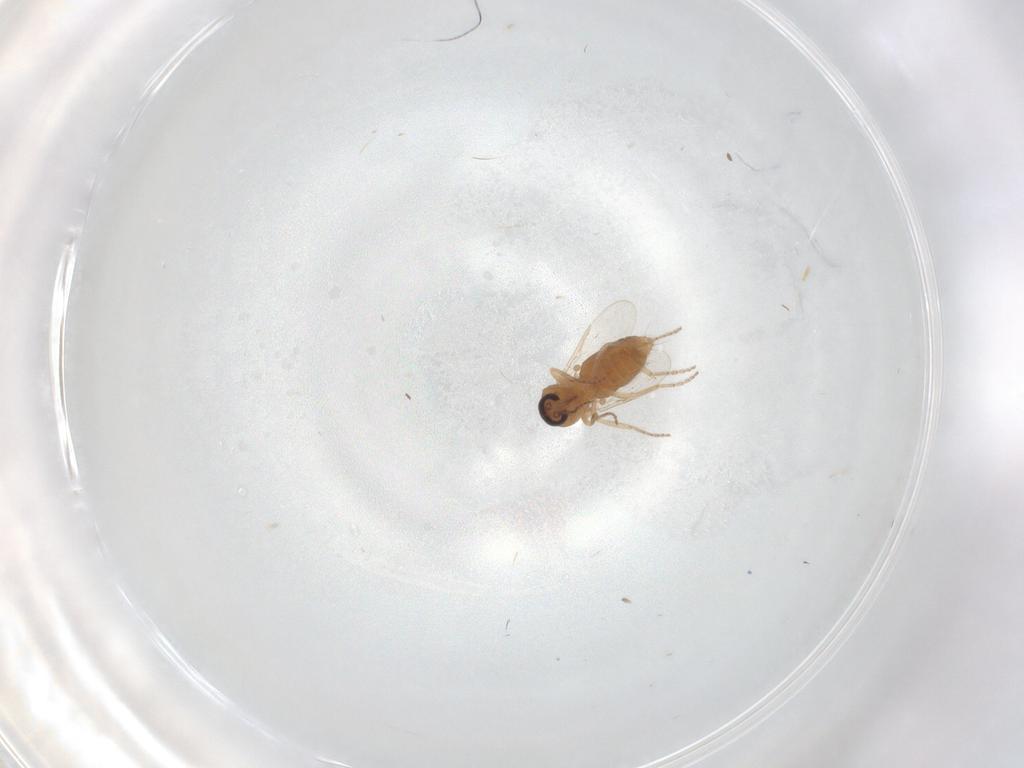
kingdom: Animalia
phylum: Arthropoda
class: Insecta
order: Diptera
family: Ceratopogonidae
